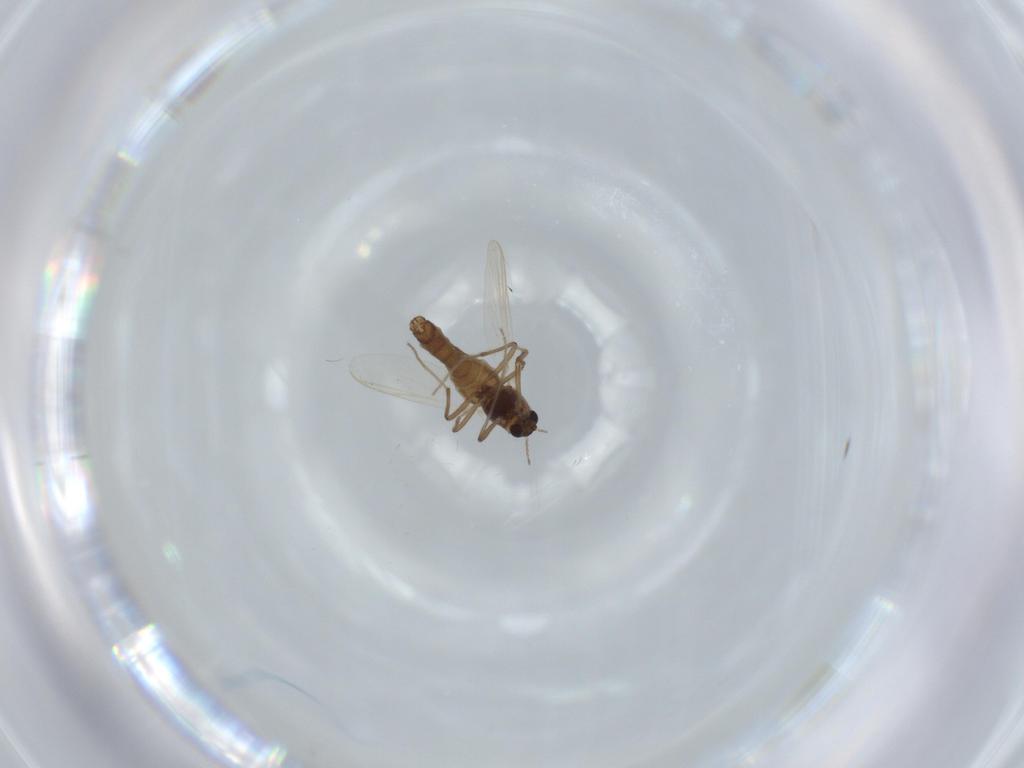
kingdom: Animalia
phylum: Arthropoda
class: Insecta
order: Diptera
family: Chironomidae
